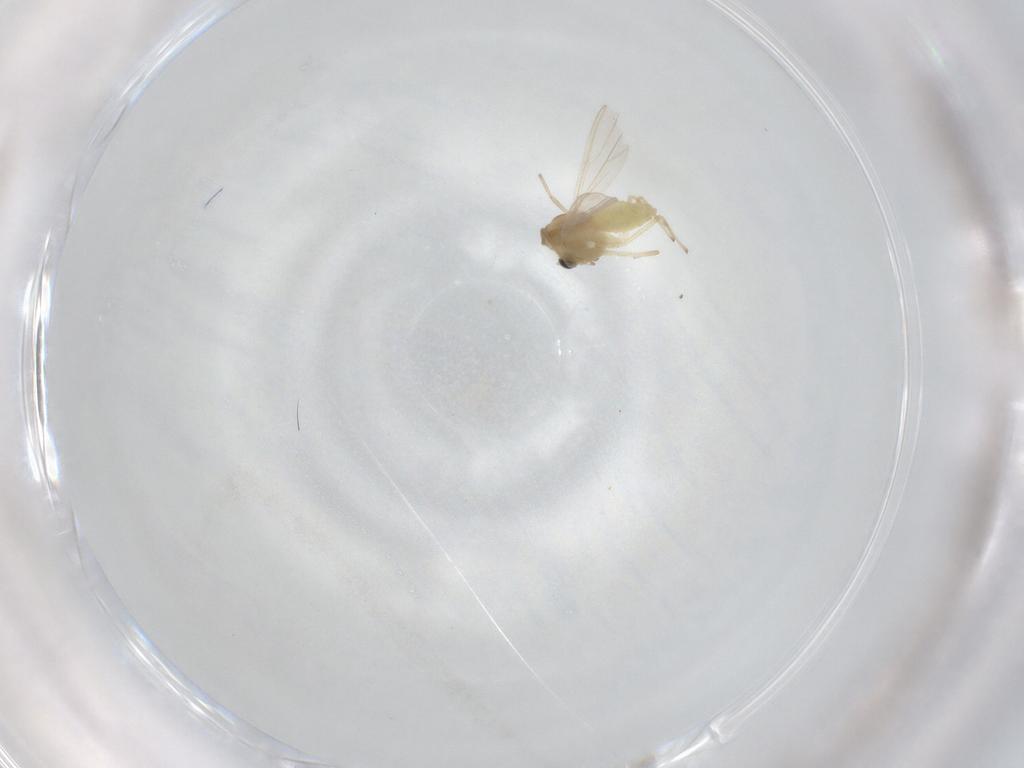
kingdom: Animalia
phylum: Arthropoda
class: Insecta
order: Diptera
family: Chironomidae
